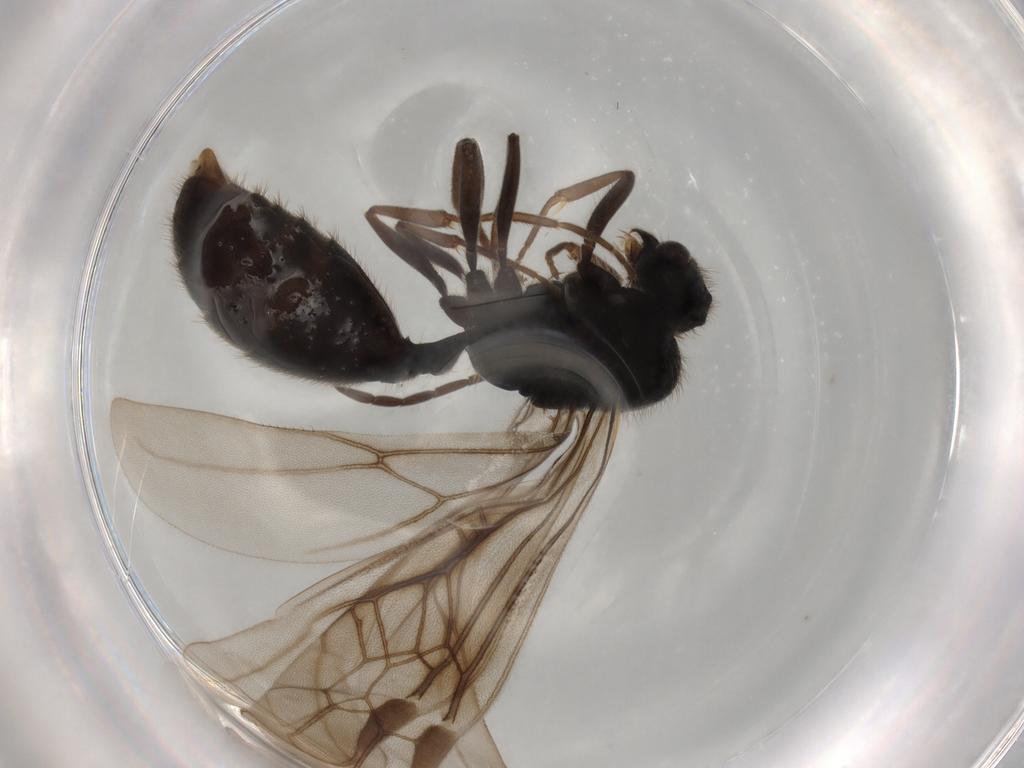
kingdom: Animalia
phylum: Arthropoda
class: Insecta
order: Hymenoptera
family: Formicidae
